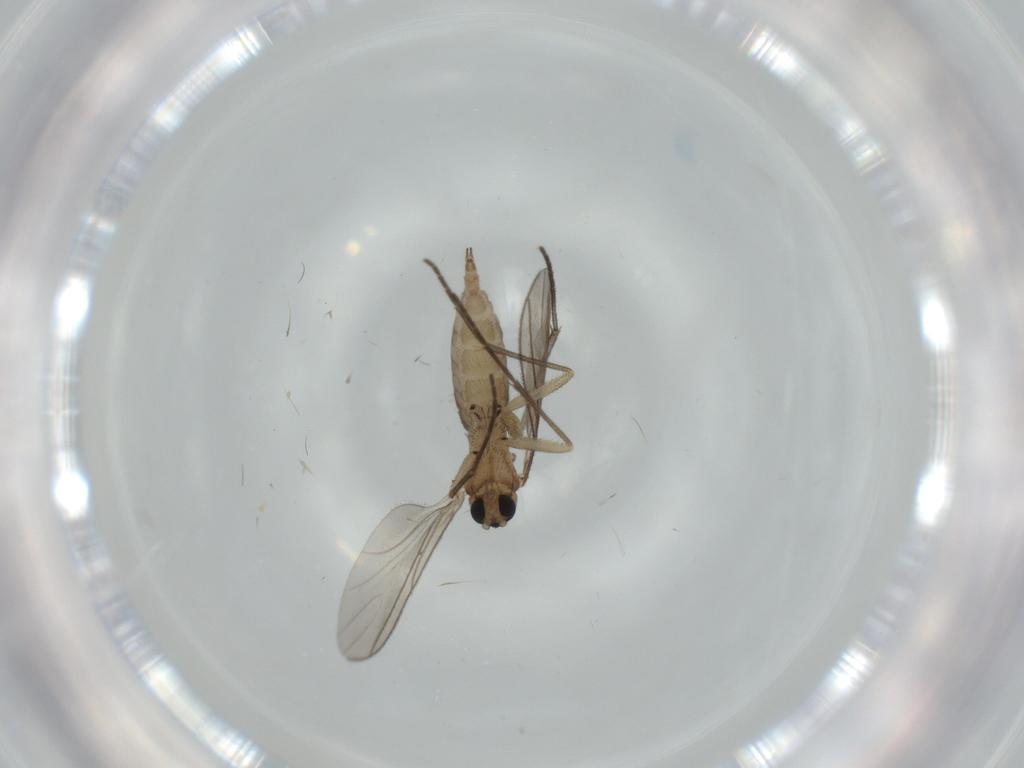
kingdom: Animalia
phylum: Arthropoda
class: Insecta
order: Diptera
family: Sciaridae
